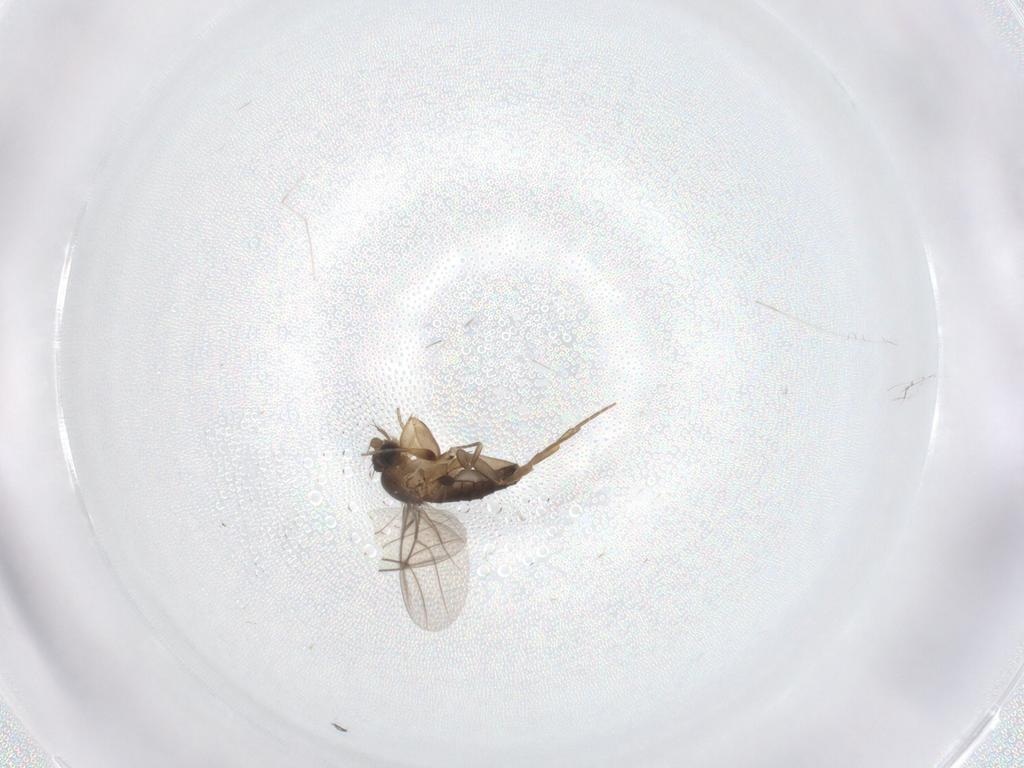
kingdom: Animalia
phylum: Arthropoda
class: Insecta
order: Diptera
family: Phoridae
